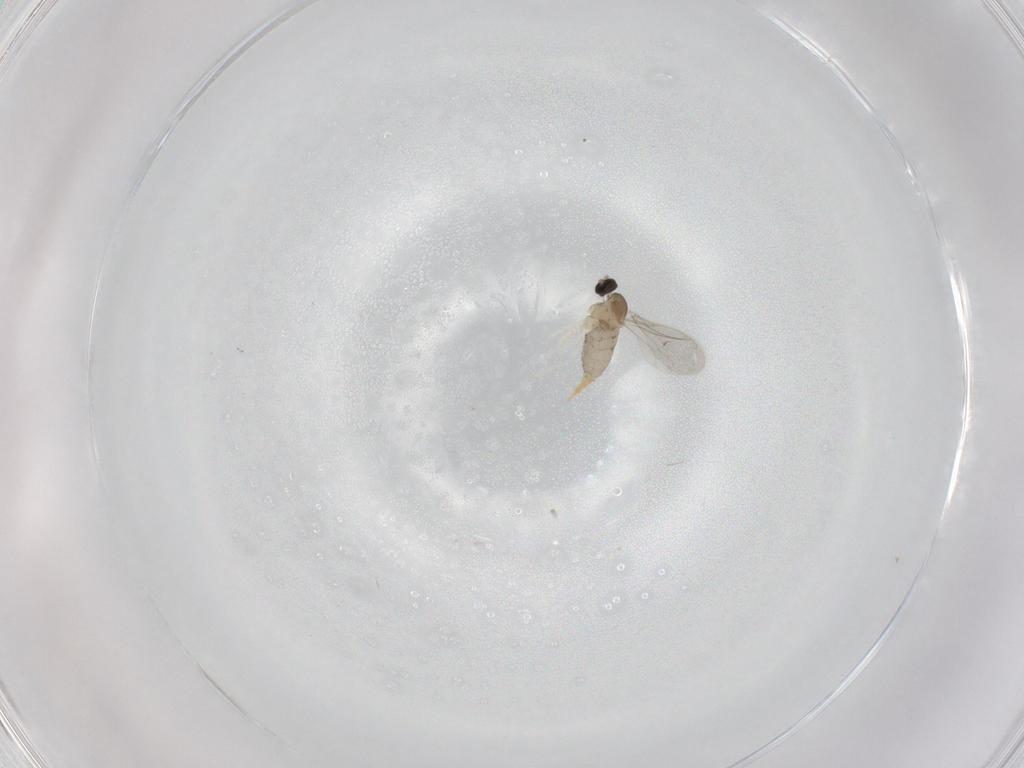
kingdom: Animalia
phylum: Arthropoda
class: Insecta
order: Diptera
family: Cecidomyiidae
